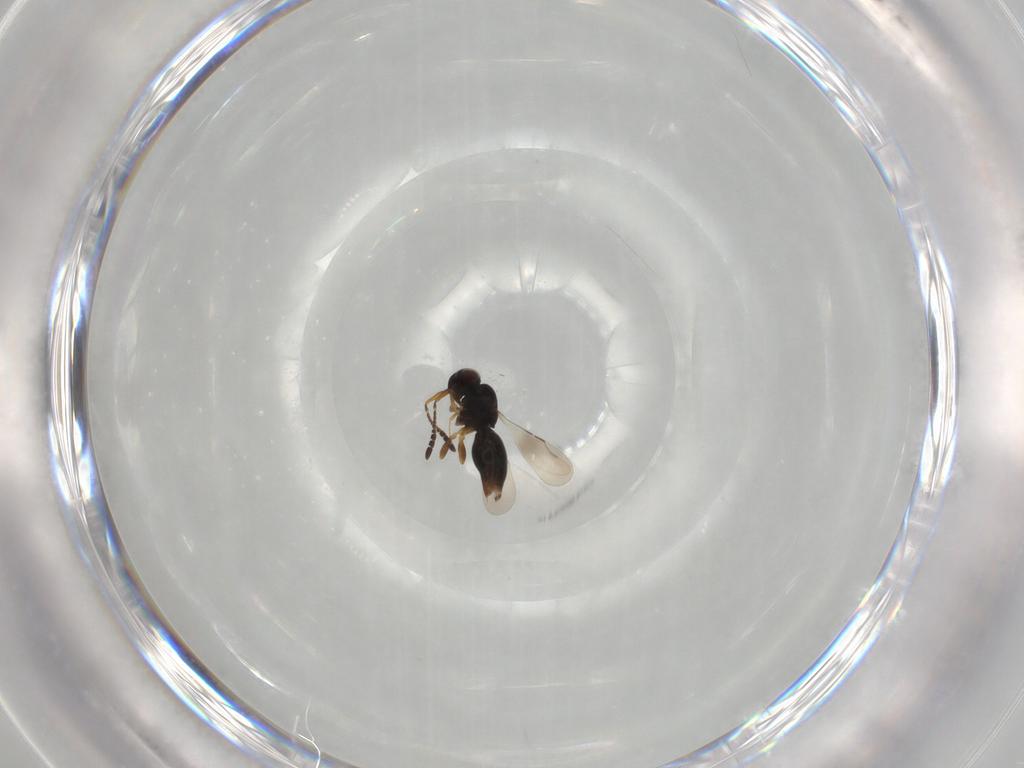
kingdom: Animalia
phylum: Arthropoda
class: Insecta
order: Hymenoptera
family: Ceraphronidae
